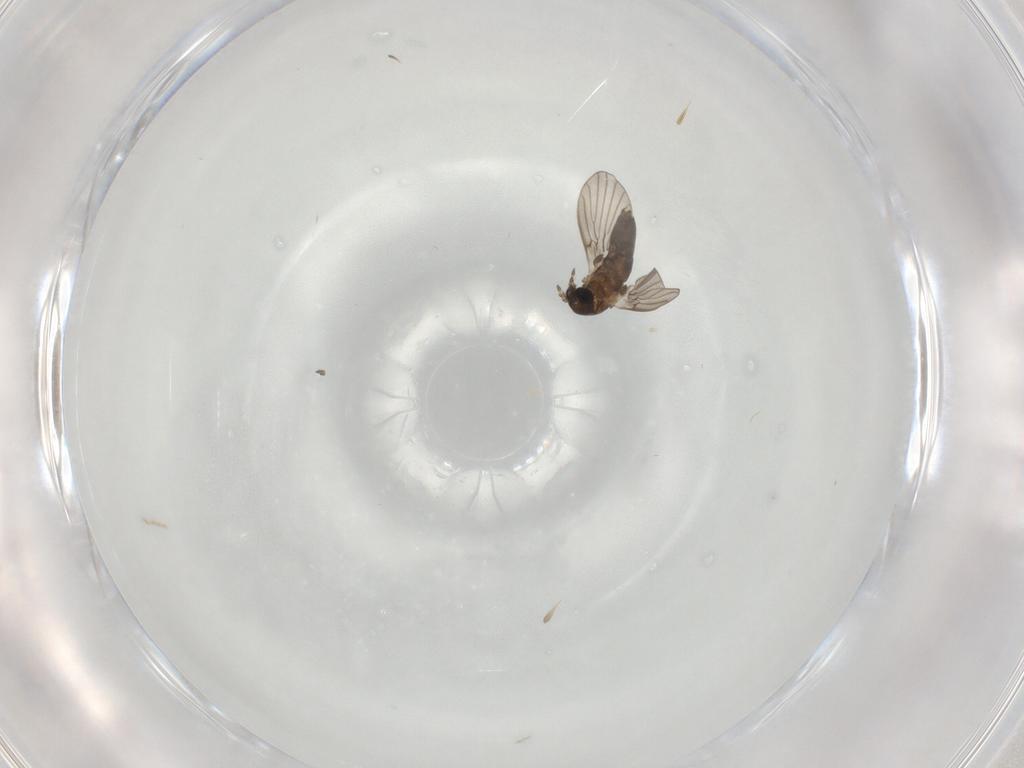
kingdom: Animalia
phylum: Arthropoda
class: Insecta
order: Diptera
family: Cecidomyiidae
